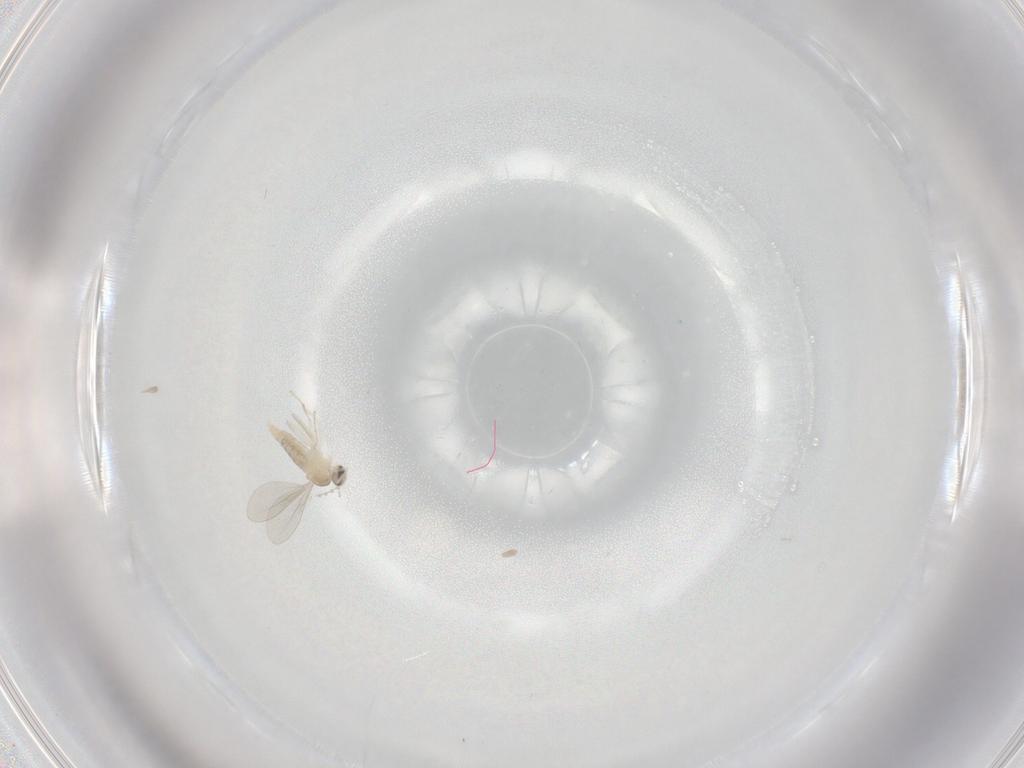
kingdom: Animalia
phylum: Arthropoda
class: Insecta
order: Diptera
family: Cecidomyiidae
